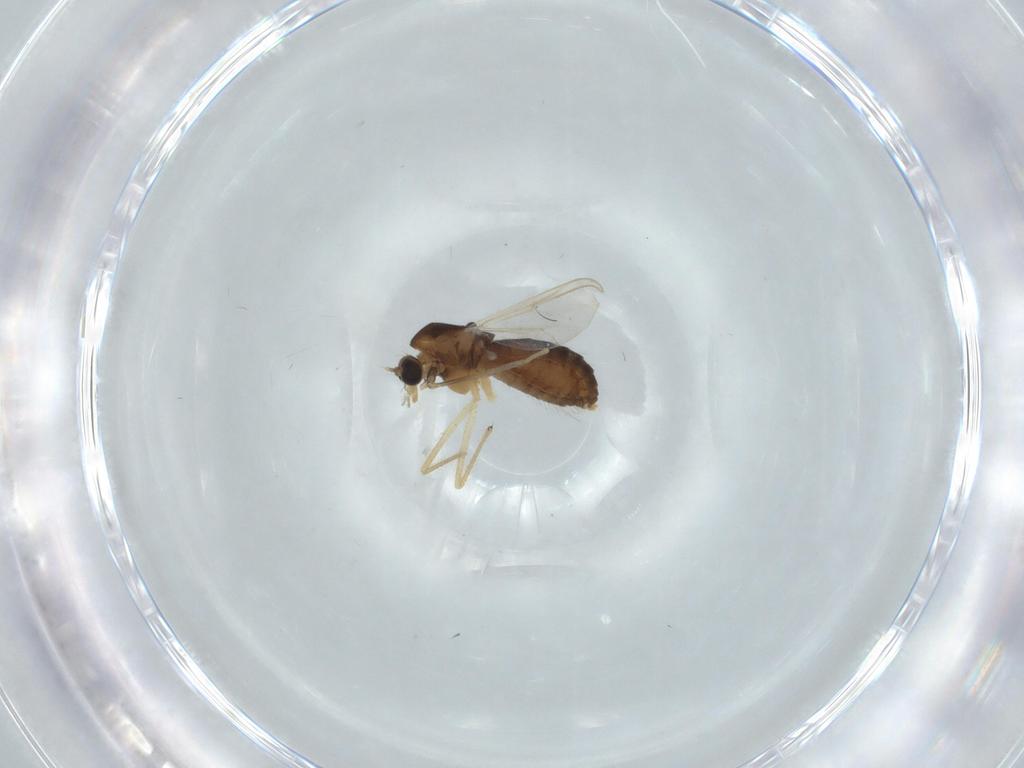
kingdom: Animalia
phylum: Arthropoda
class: Insecta
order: Diptera
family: Chironomidae
